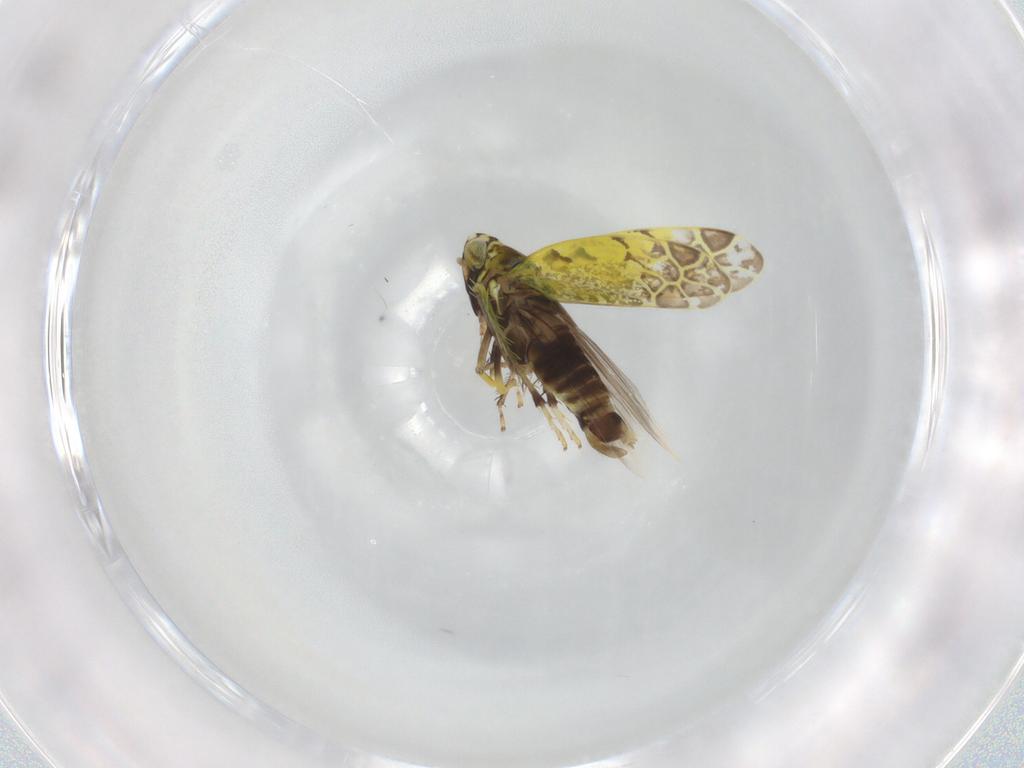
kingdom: Animalia
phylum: Arthropoda
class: Insecta
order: Hemiptera
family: Cicadellidae
